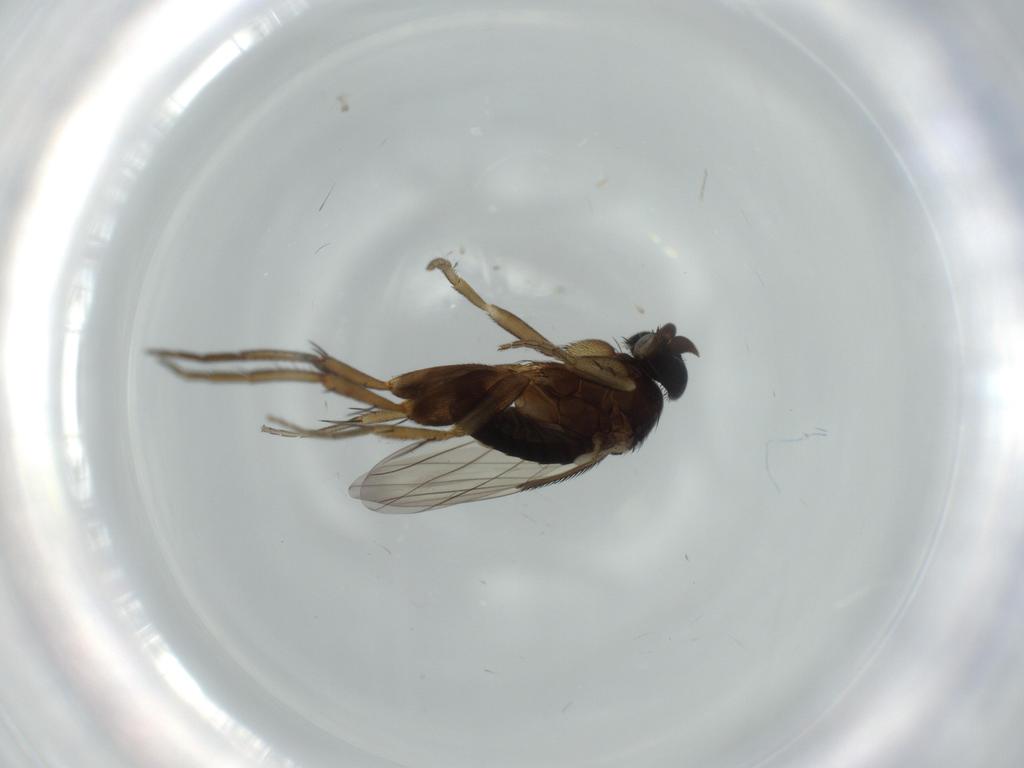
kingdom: Animalia
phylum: Arthropoda
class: Insecta
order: Diptera
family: Phoridae
